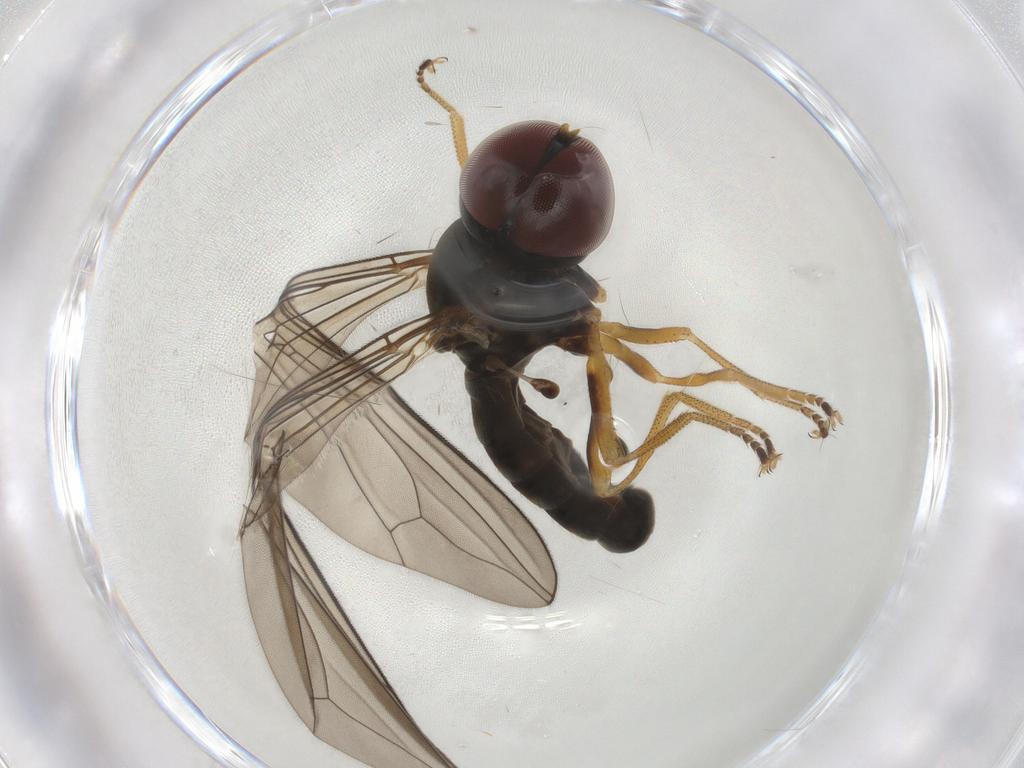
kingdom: Animalia
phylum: Arthropoda
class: Insecta
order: Diptera
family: Pipunculidae
